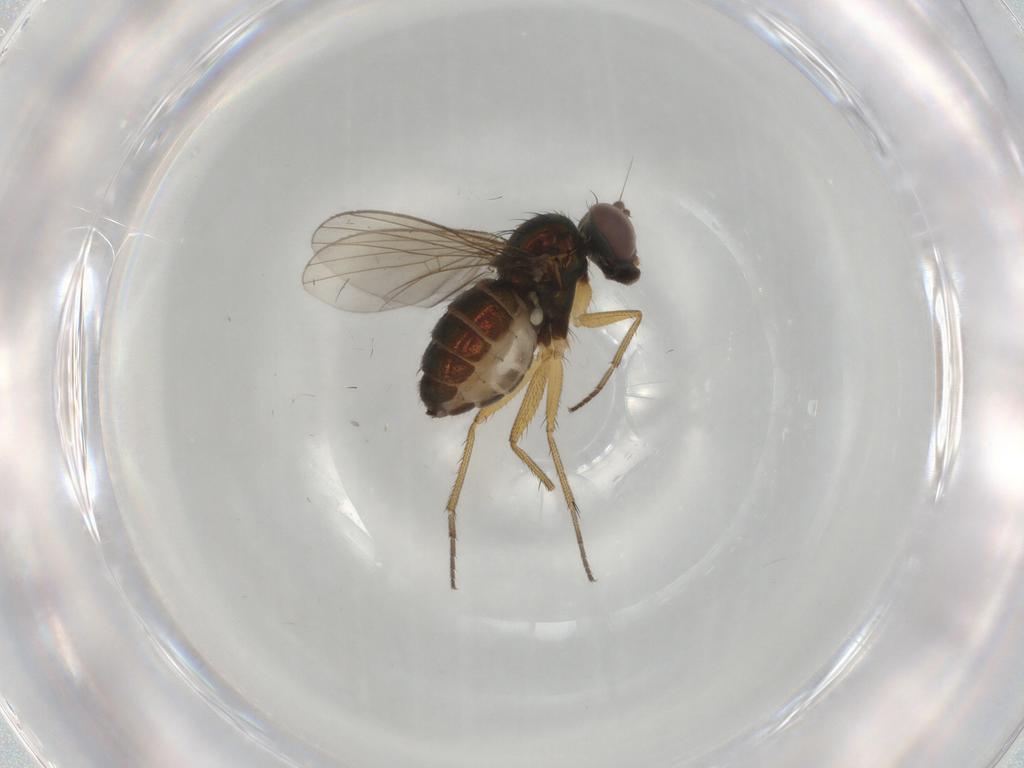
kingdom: Animalia
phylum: Arthropoda
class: Insecta
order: Diptera
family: Dolichopodidae
